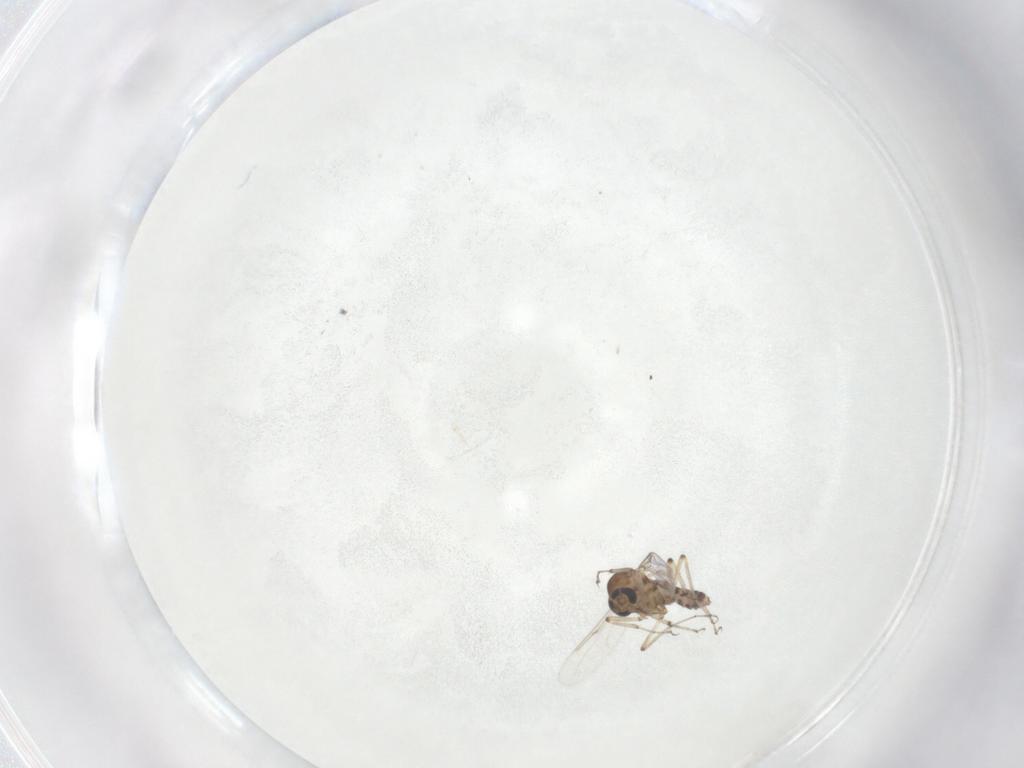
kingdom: Animalia
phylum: Arthropoda
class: Insecta
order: Diptera
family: Ceratopogonidae
